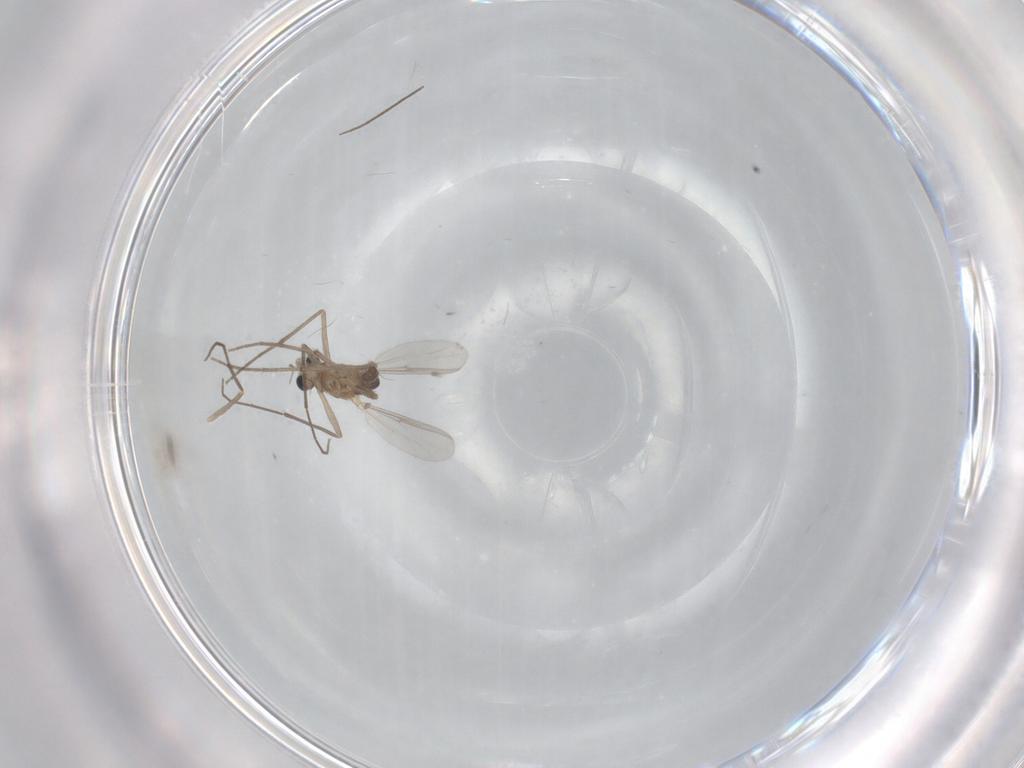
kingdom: Animalia
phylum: Arthropoda
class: Insecta
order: Diptera
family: Chironomidae
